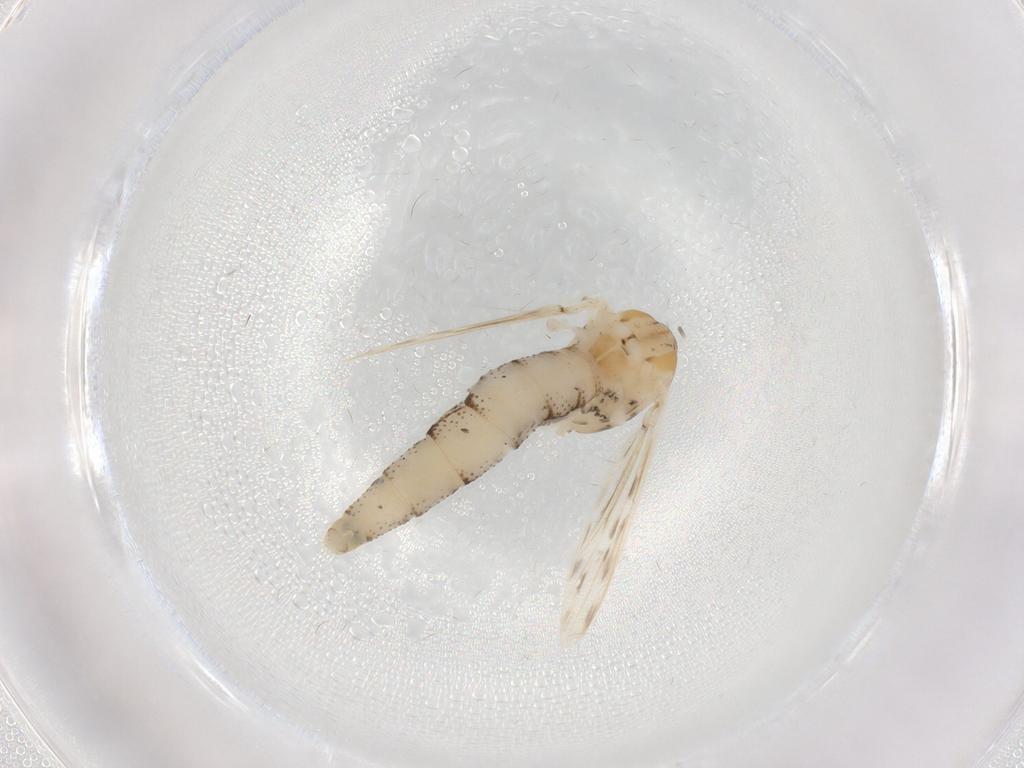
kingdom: Animalia
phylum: Arthropoda
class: Insecta
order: Diptera
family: Chaoboridae
